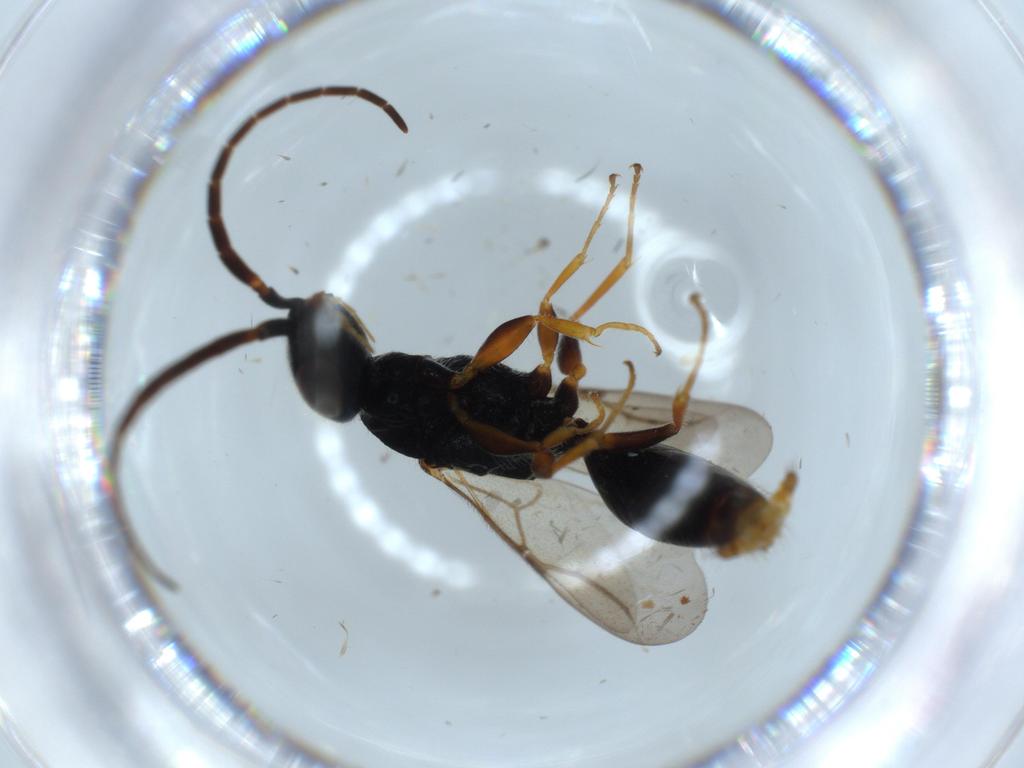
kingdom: Animalia
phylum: Arthropoda
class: Insecta
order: Hymenoptera
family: Bethylidae
